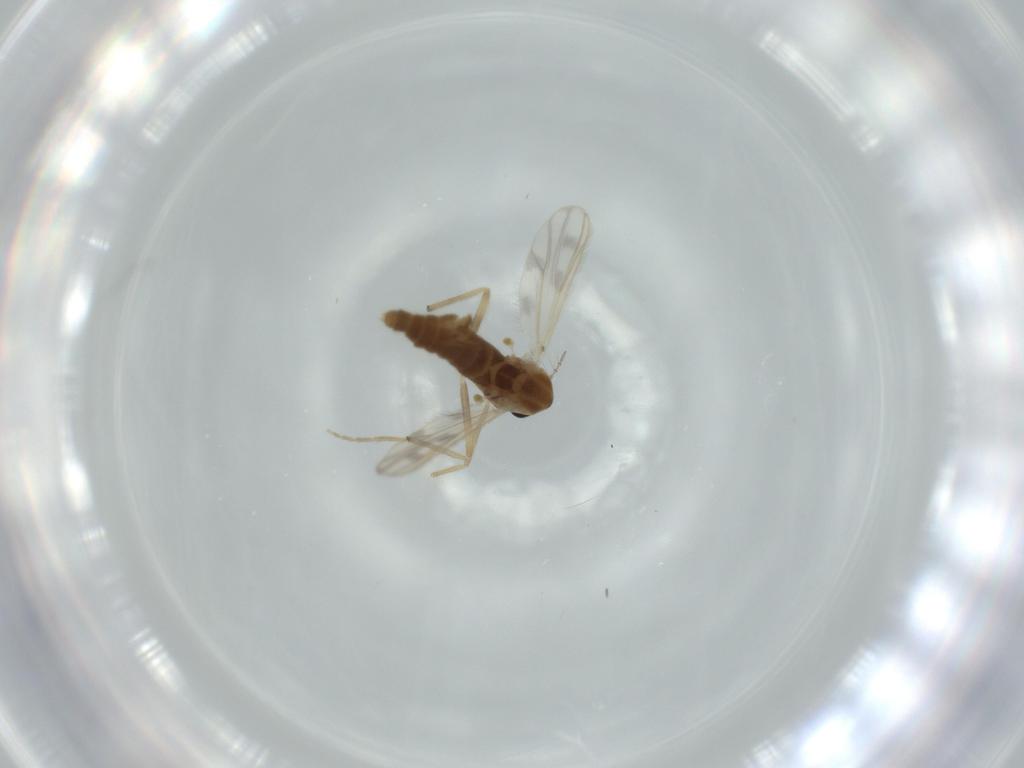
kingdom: Animalia
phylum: Arthropoda
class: Insecta
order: Diptera
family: Chironomidae
